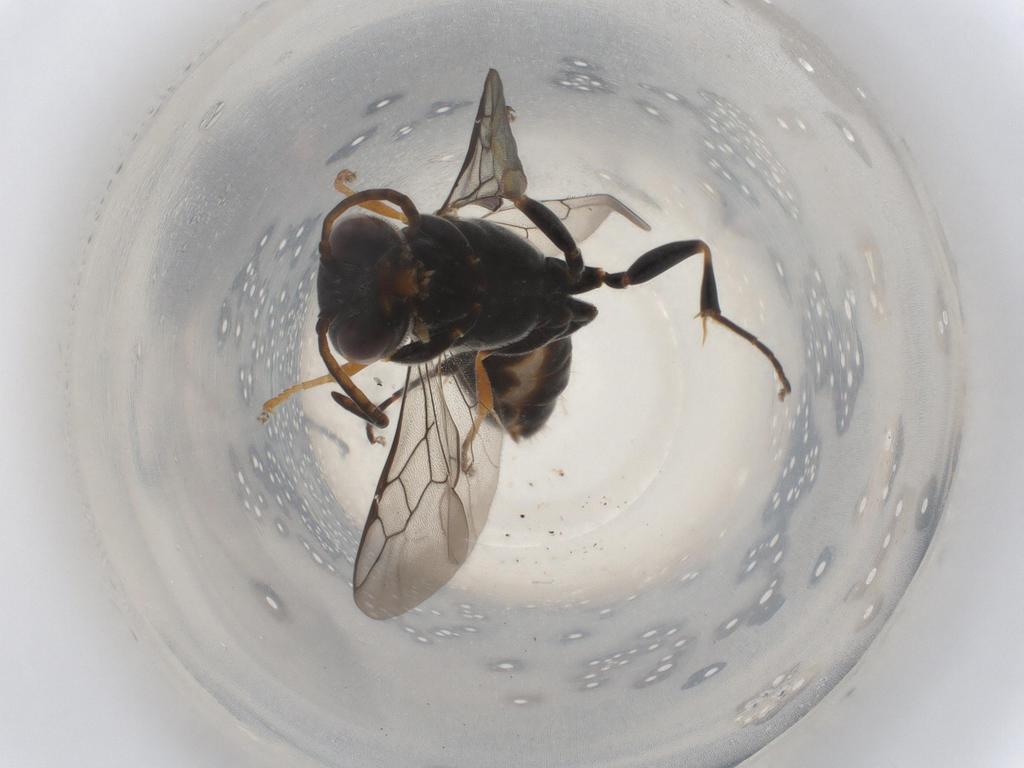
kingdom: Animalia
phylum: Arthropoda
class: Insecta
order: Hymenoptera
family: Crabronidae
